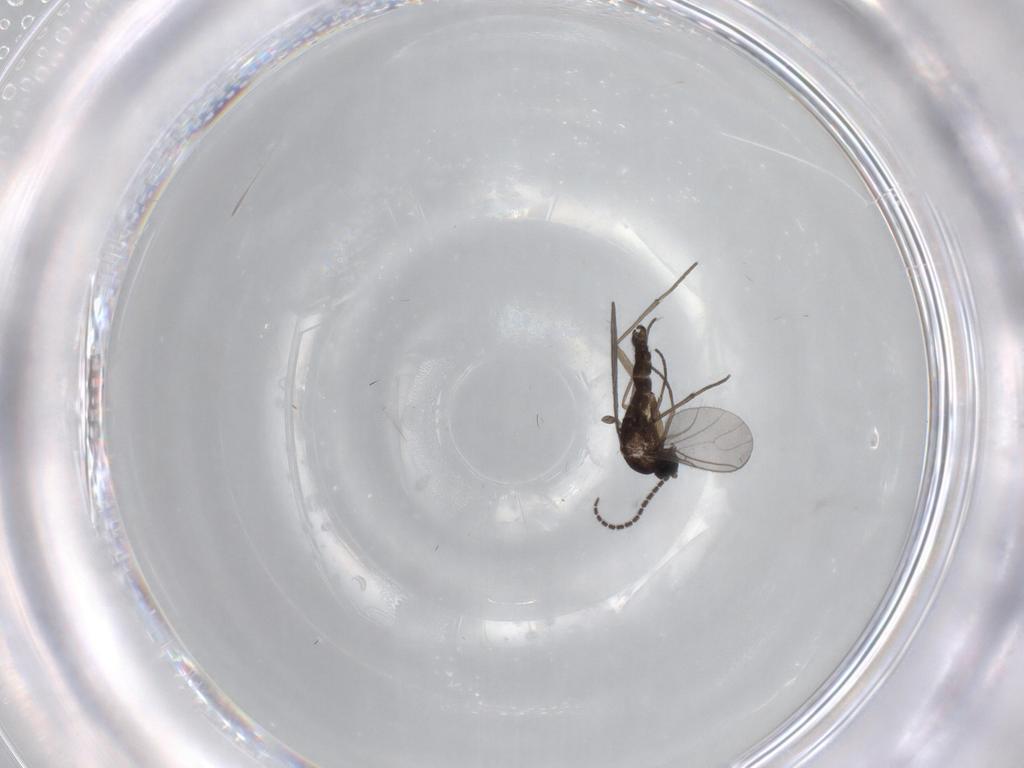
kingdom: Animalia
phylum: Arthropoda
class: Insecta
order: Diptera
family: Sciaridae
